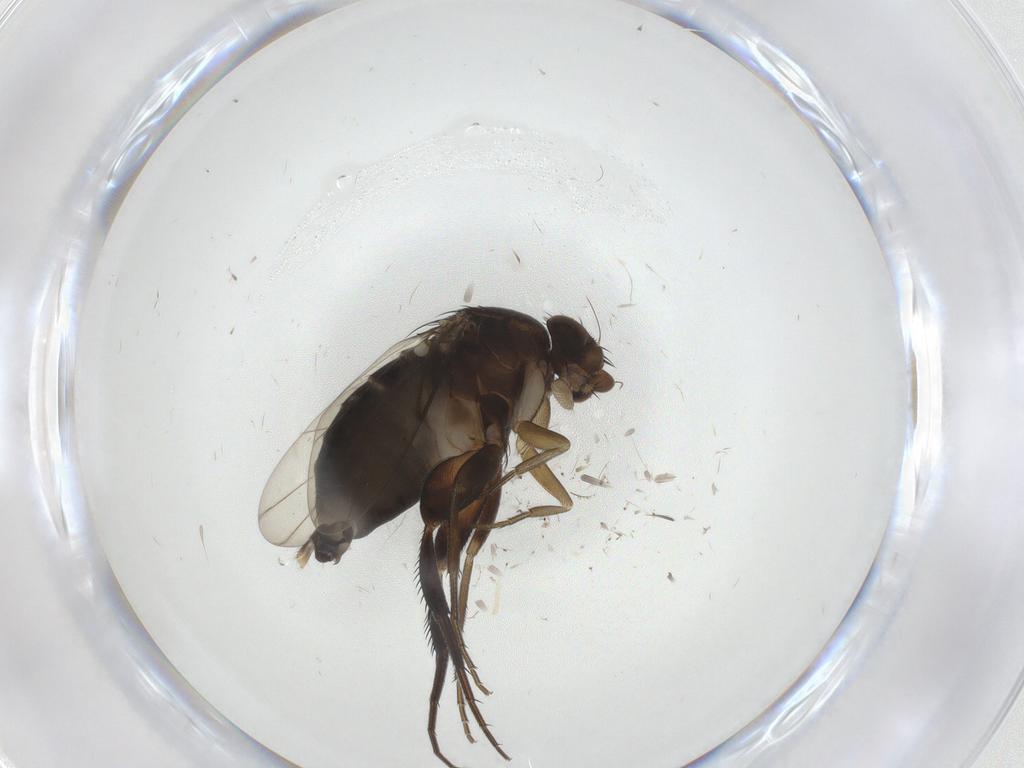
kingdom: Animalia
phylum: Arthropoda
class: Insecta
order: Diptera
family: Phoridae
